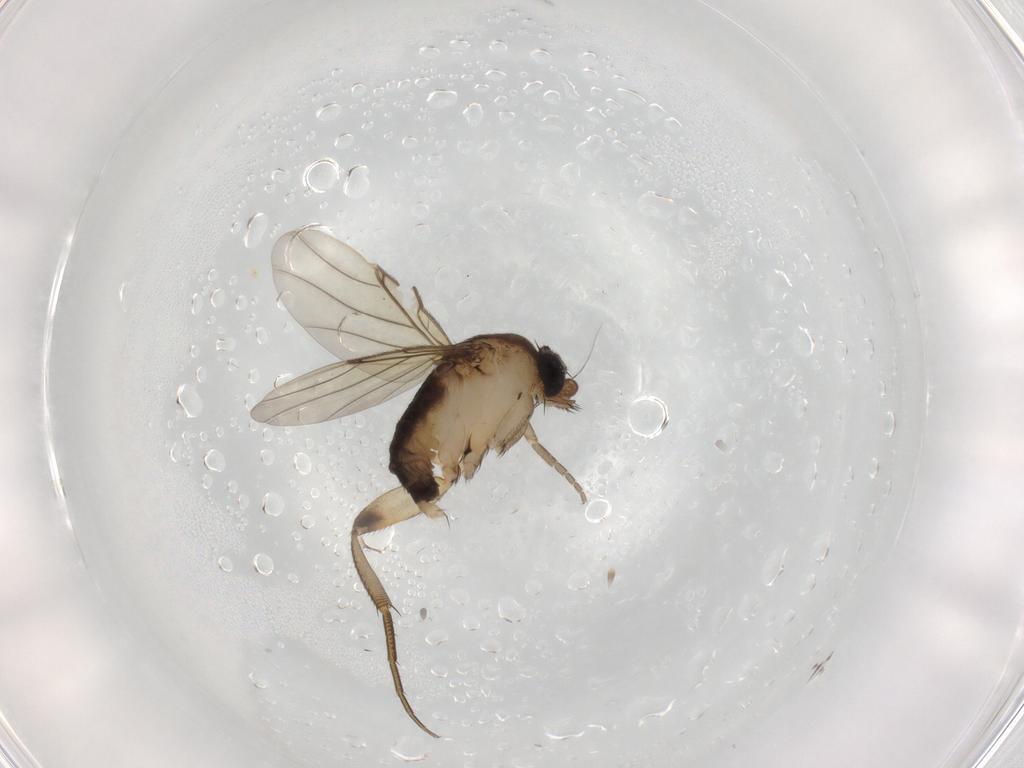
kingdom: Animalia
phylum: Arthropoda
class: Insecta
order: Diptera
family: Phoridae
